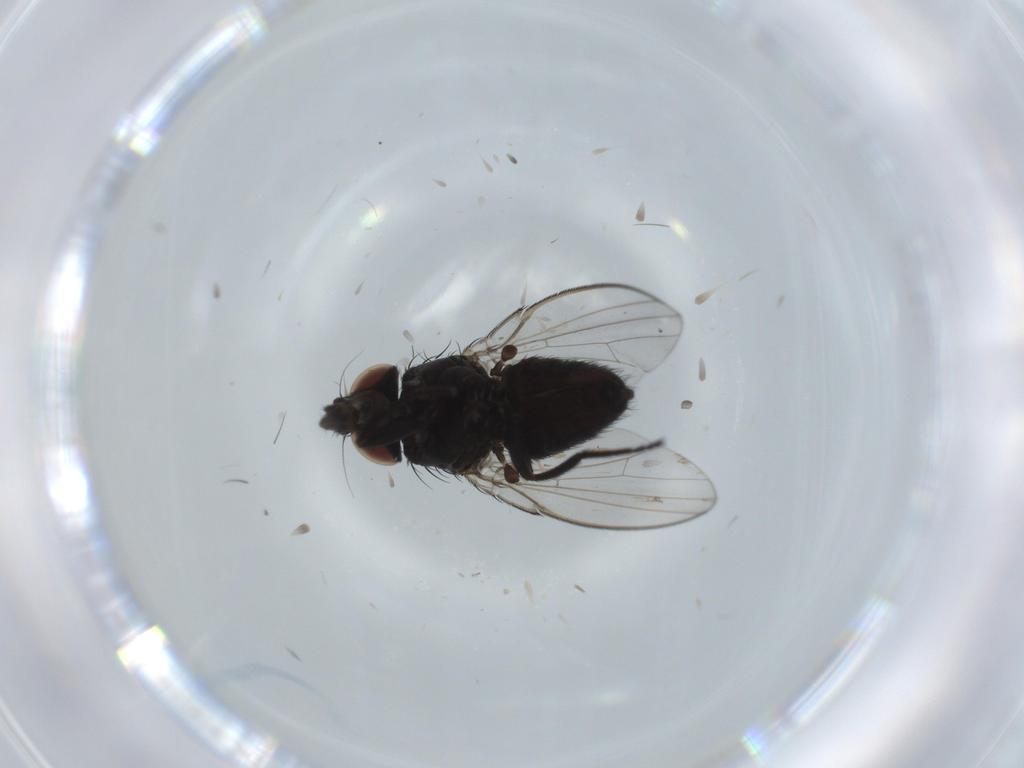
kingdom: Animalia
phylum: Arthropoda
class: Insecta
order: Diptera
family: Milichiidae
